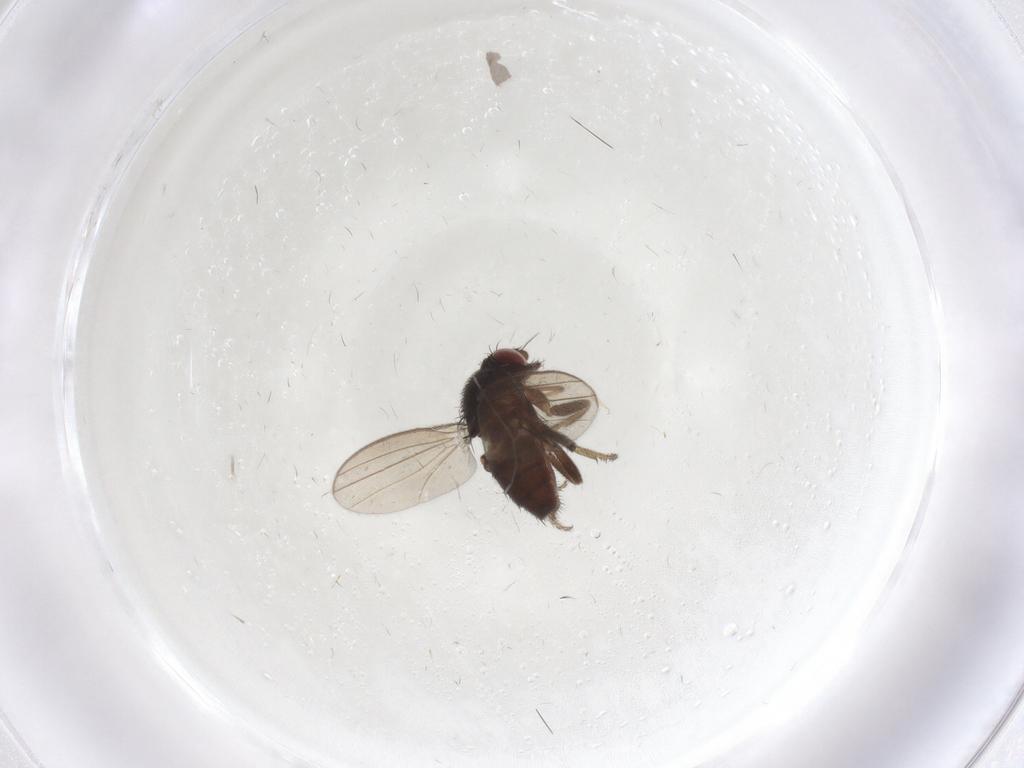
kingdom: Animalia
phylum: Arthropoda
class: Insecta
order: Diptera
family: Milichiidae
